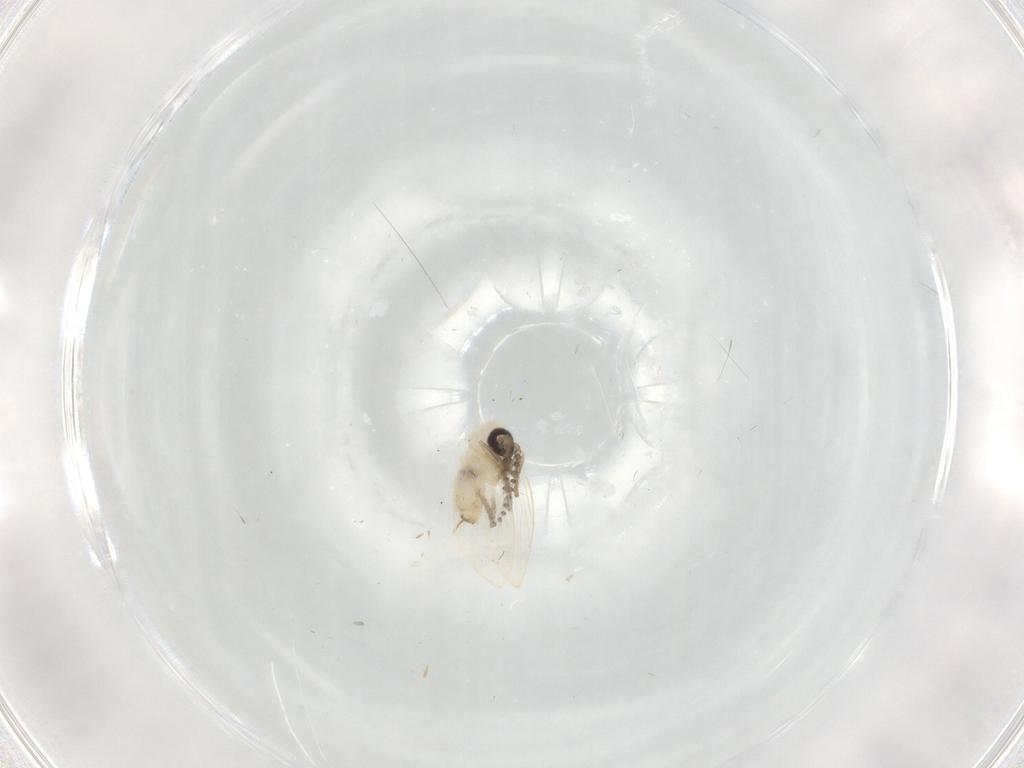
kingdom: Animalia
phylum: Arthropoda
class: Insecta
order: Diptera
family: Psychodidae
